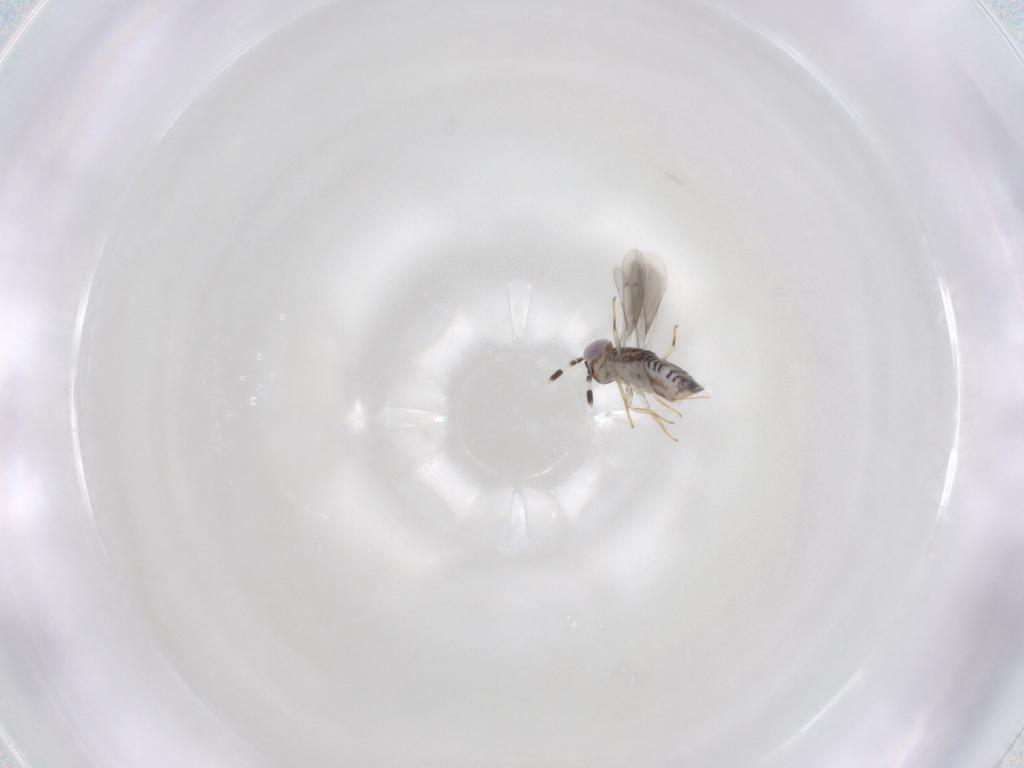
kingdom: Animalia
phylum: Arthropoda
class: Insecta
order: Hymenoptera
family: Aphelinidae
